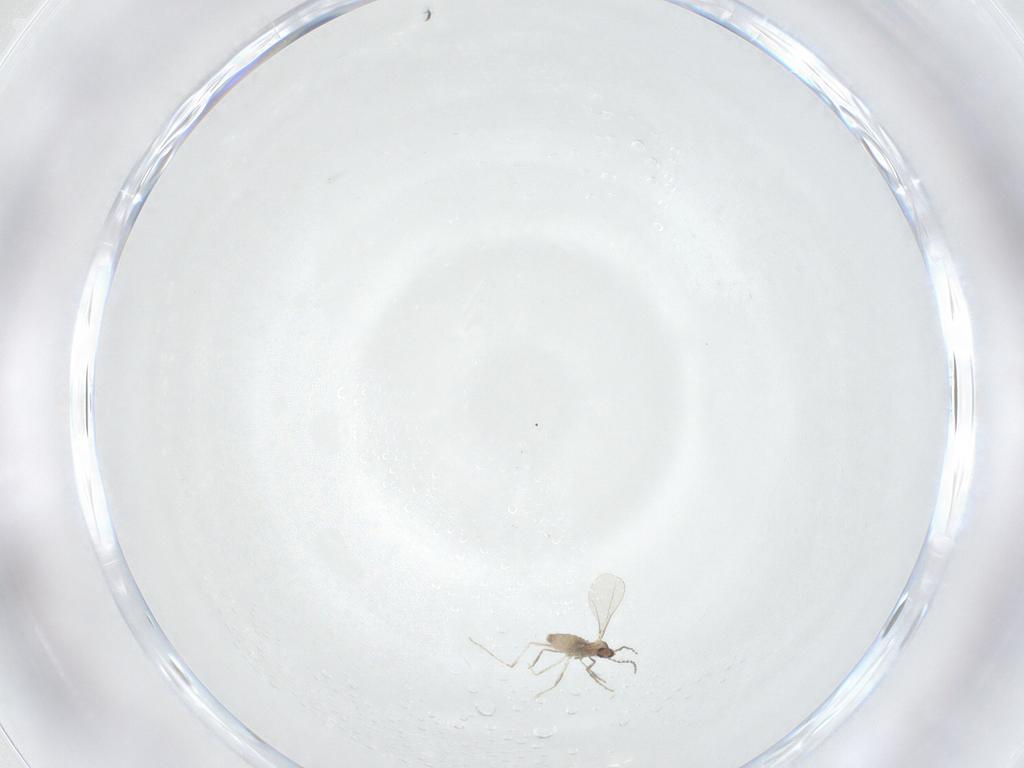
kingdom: Animalia
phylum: Arthropoda
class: Insecta
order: Diptera
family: Cecidomyiidae
